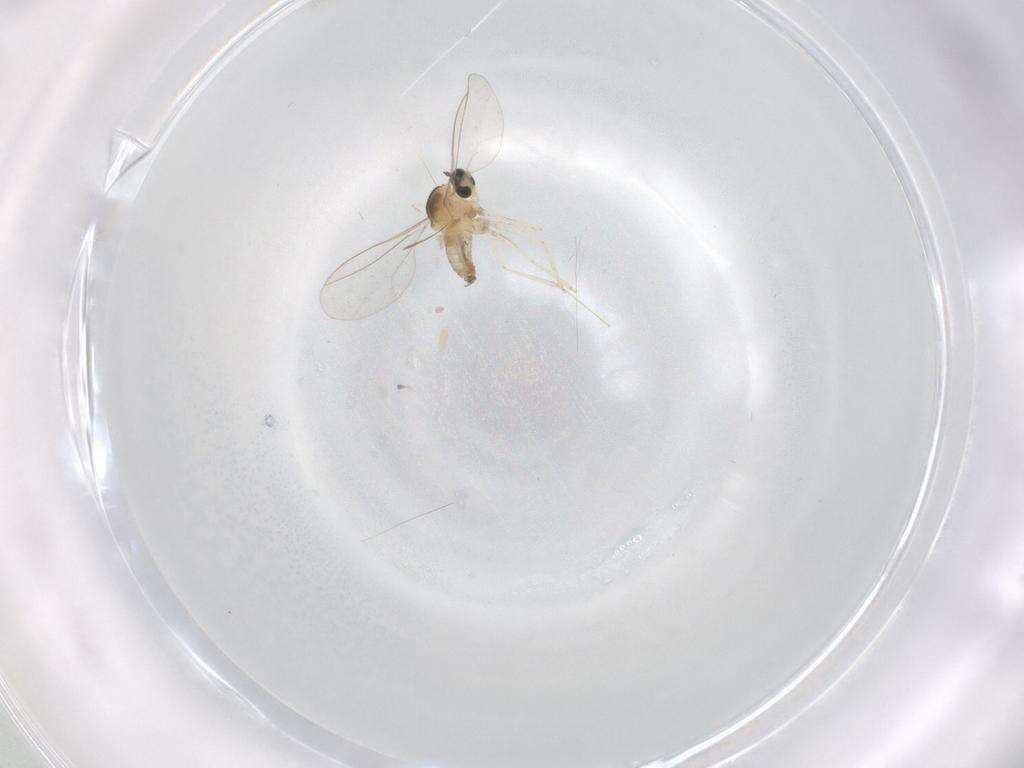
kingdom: Animalia
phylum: Arthropoda
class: Insecta
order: Diptera
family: Cecidomyiidae
